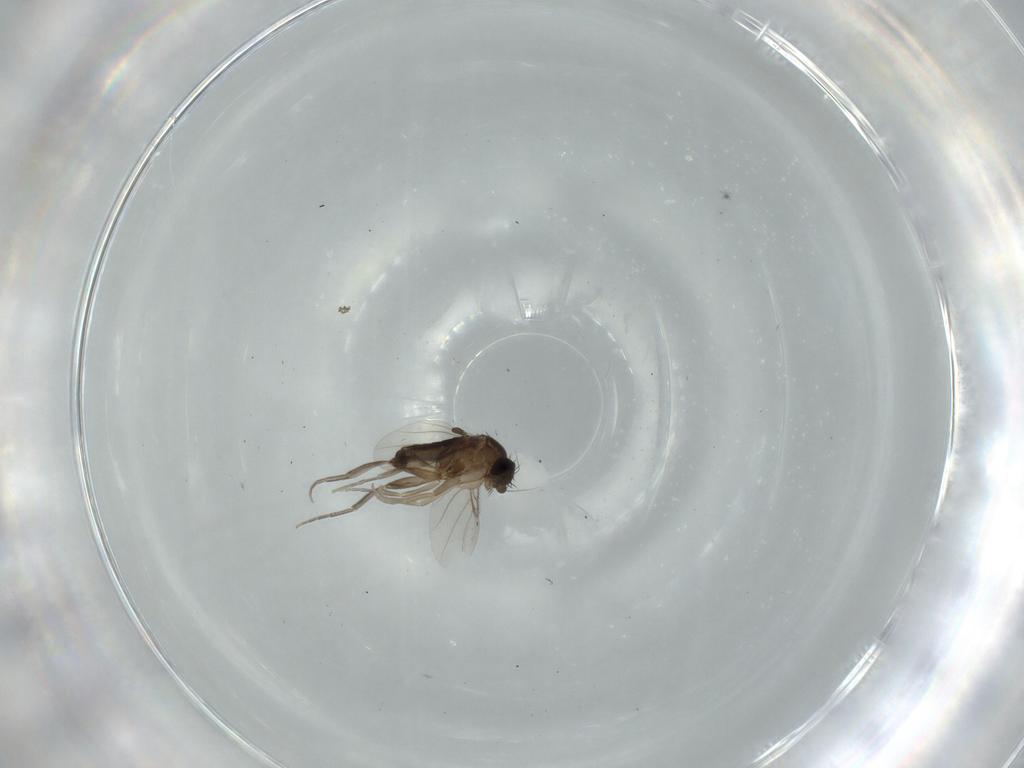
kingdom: Animalia
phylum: Arthropoda
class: Insecta
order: Diptera
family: Phoridae
